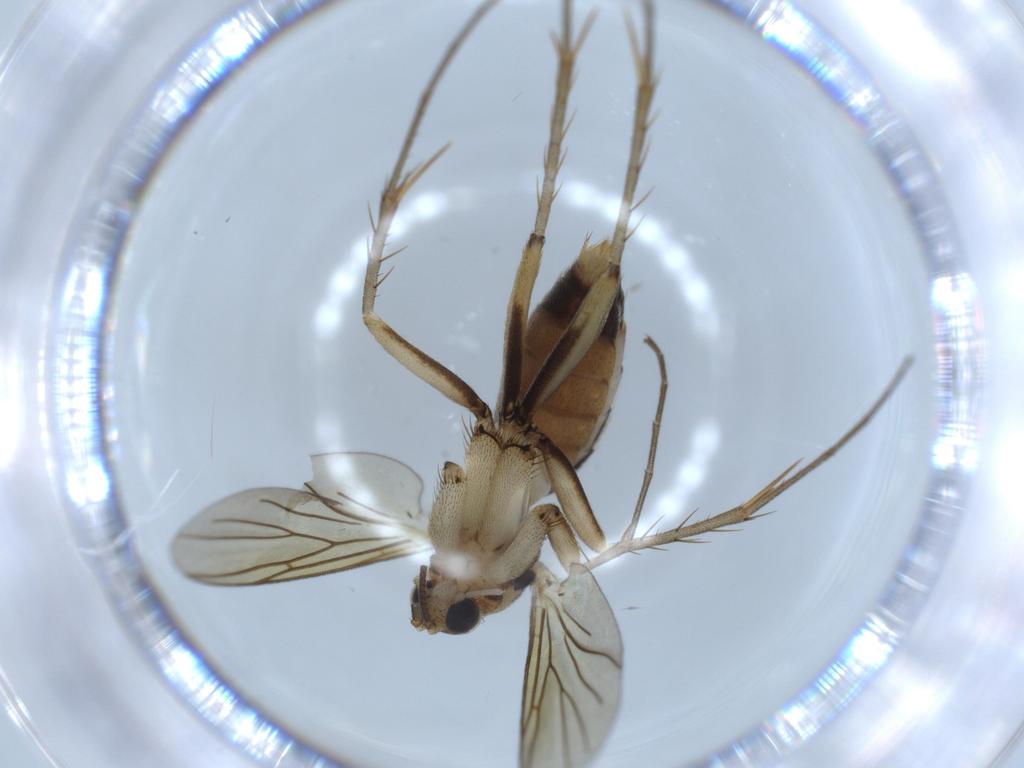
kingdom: Animalia
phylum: Arthropoda
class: Insecta
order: Diptera
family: Mycetophilidae
